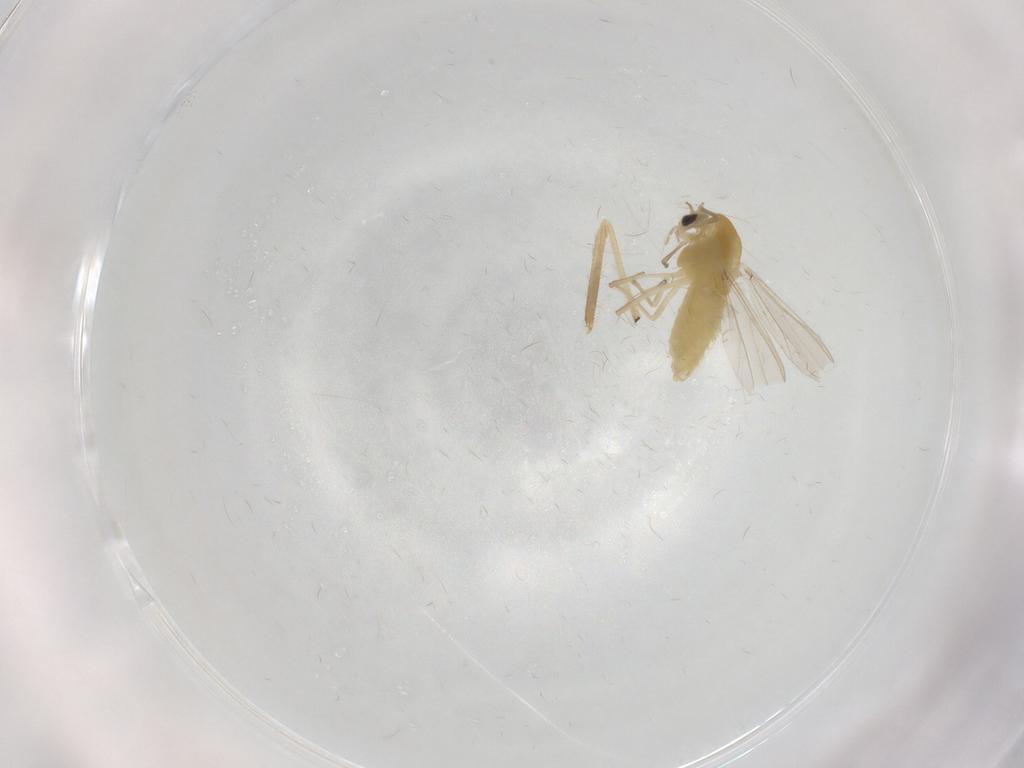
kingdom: Animalia
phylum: Arthropoda
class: Insecta
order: Diptera
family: Chironomidae
